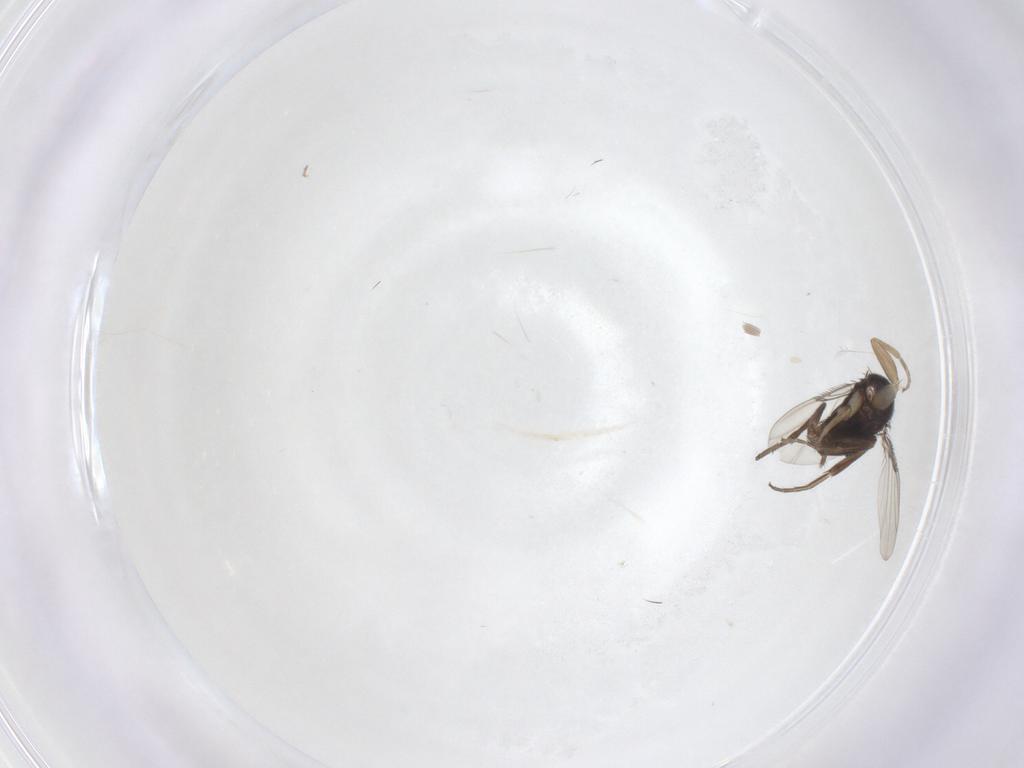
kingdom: Animalia
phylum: Arthropoda
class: Insecta
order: Diptera
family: Phoridae
